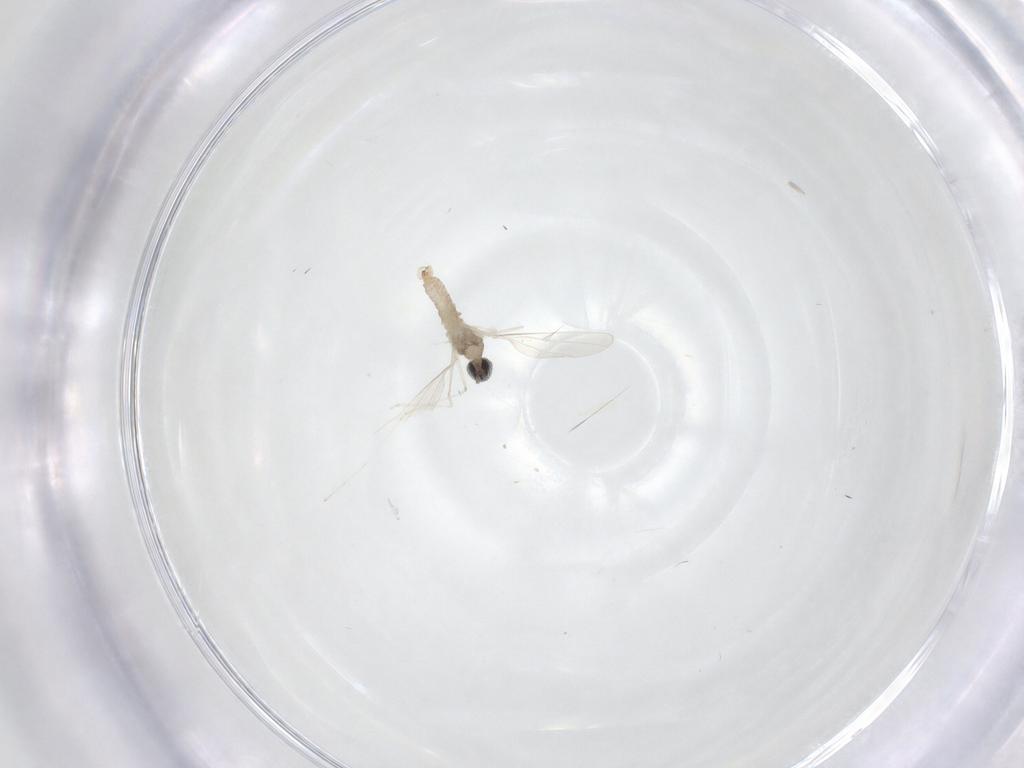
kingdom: Animalia
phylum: Arthropoda
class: Insecta
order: Diptera
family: Cecidomyiidae
